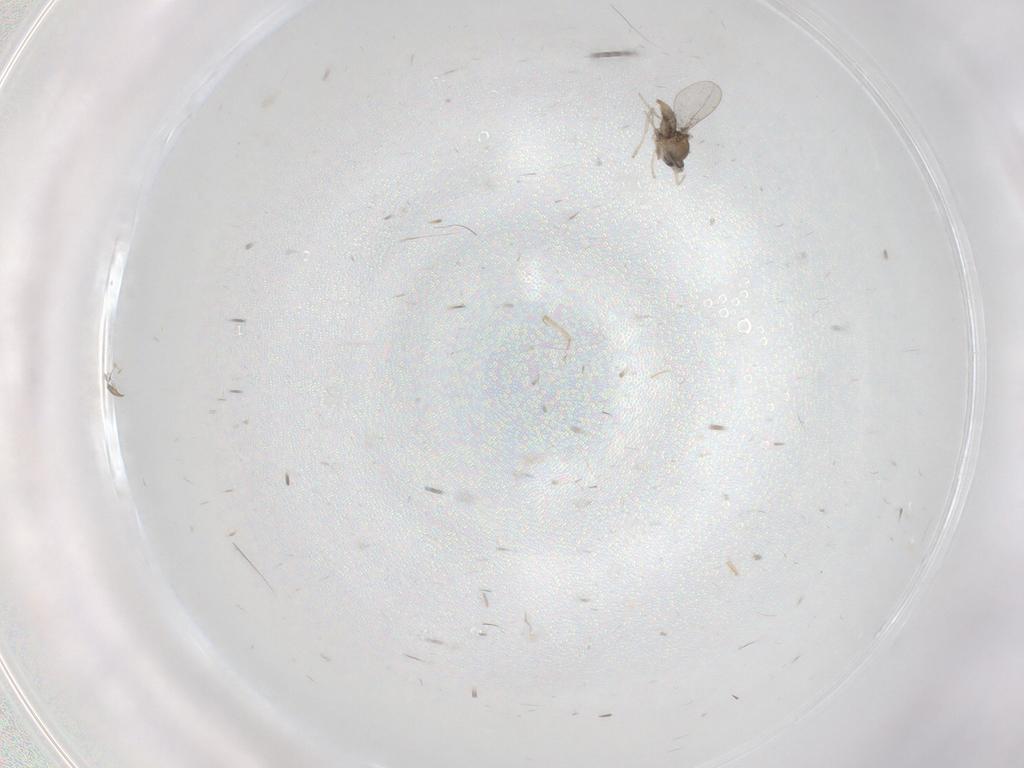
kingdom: Animalia
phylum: Arthropoda
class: Insecta
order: Diptera
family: Cecidomyiidae
